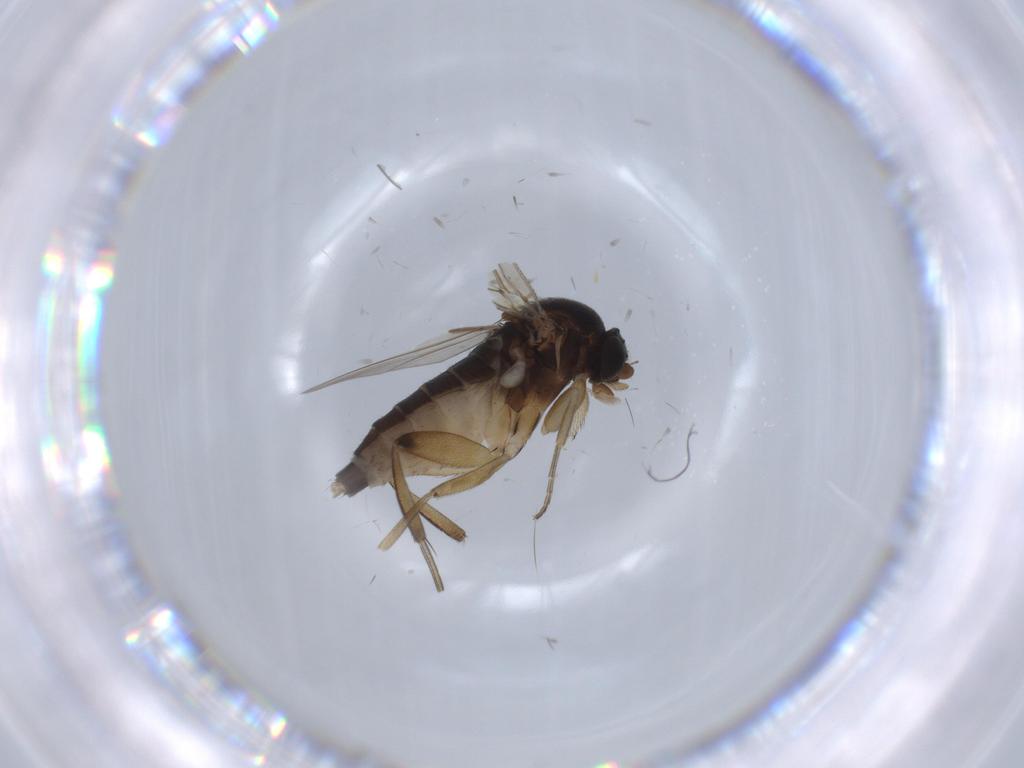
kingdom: Animalia
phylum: Arthropoda
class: Insecta
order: Diptera
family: Phoridae
